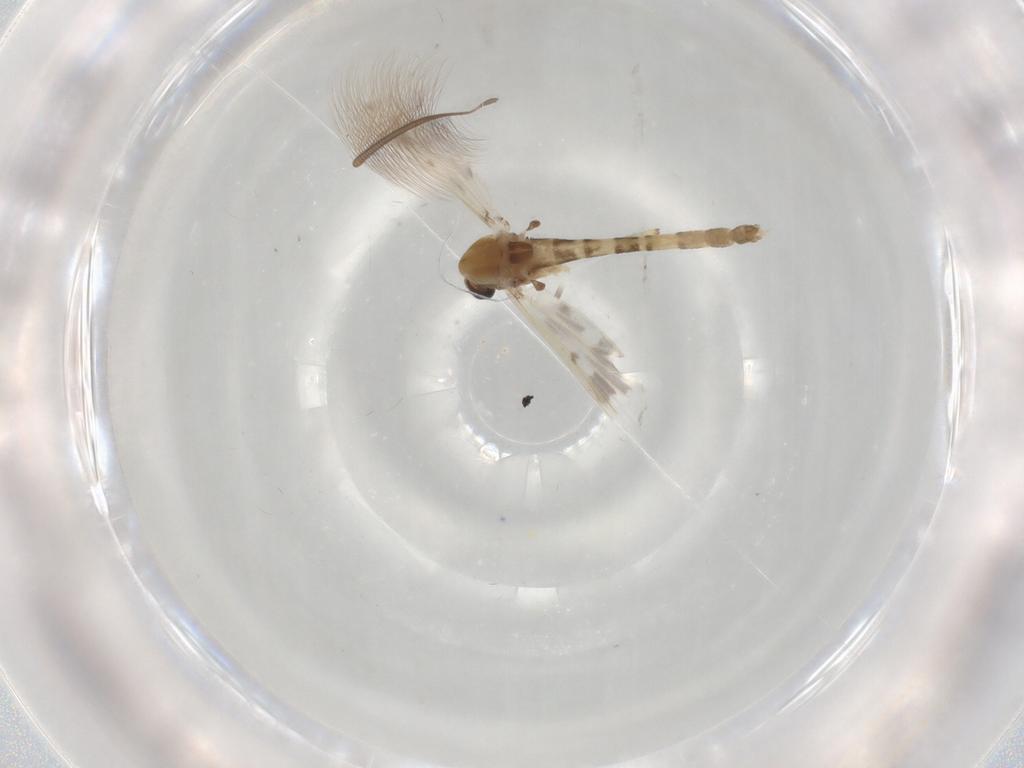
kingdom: Animalia
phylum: Arthropoda
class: Insecta
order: Diptera
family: Chironomidae
